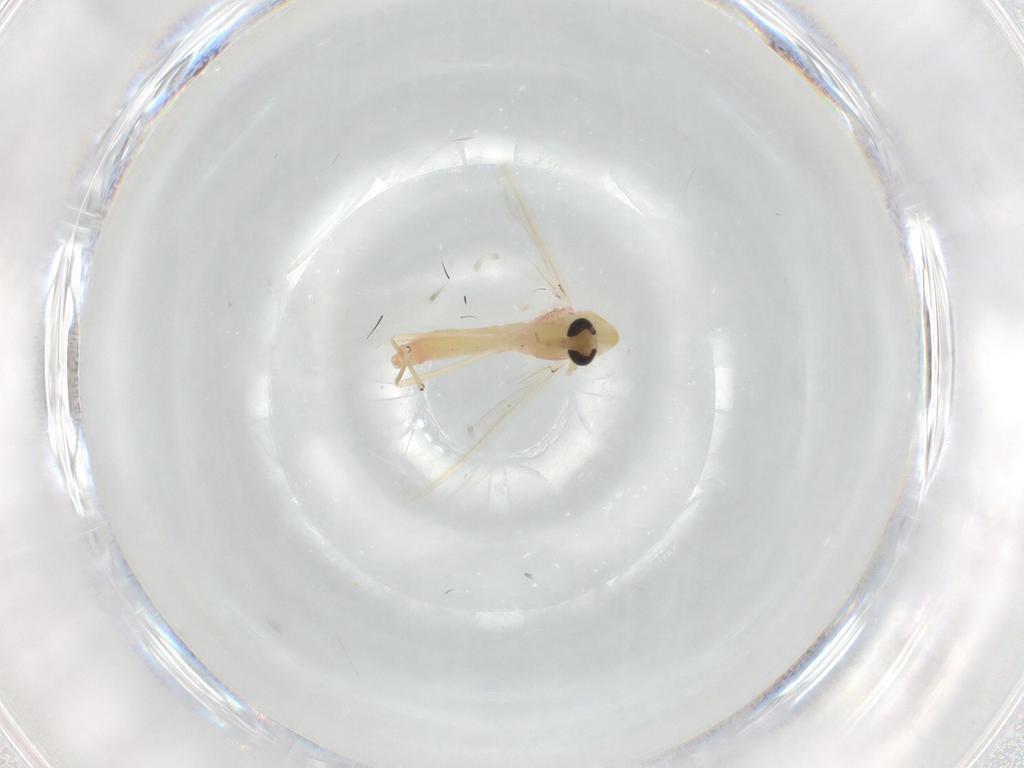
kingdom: Animalia
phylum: Arthropoda
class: Insecta
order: Diptera
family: Chironomidae
